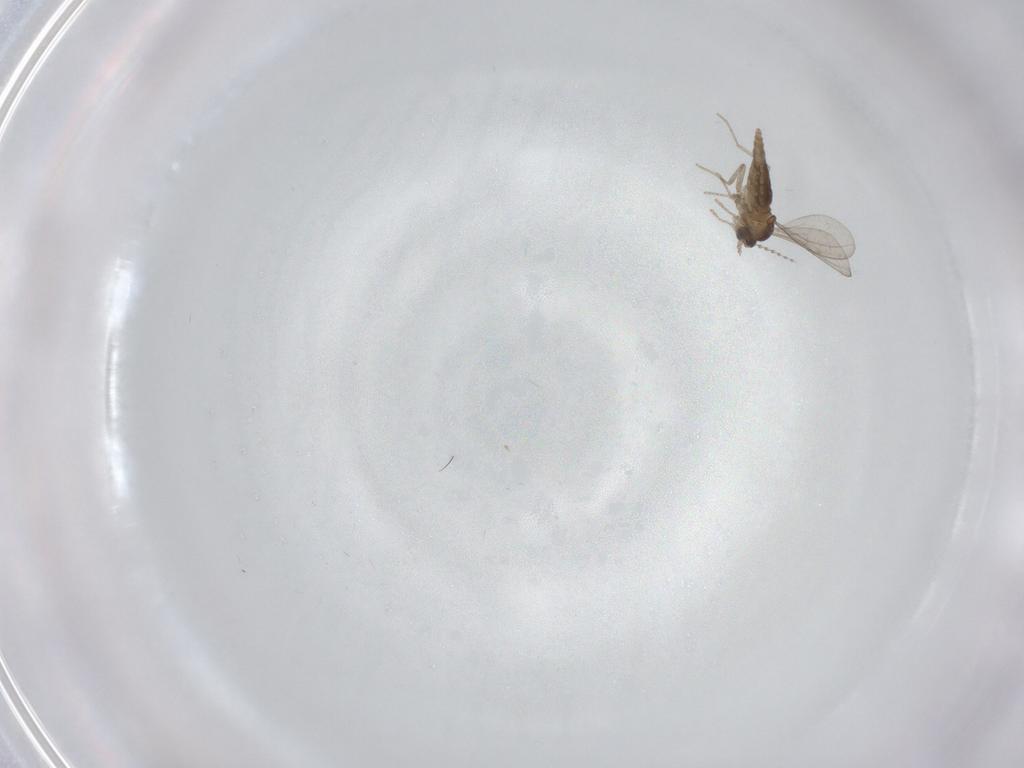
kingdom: Animalia
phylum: Arthropoda
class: Insecta
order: Diptera
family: Cecidomyiidae
